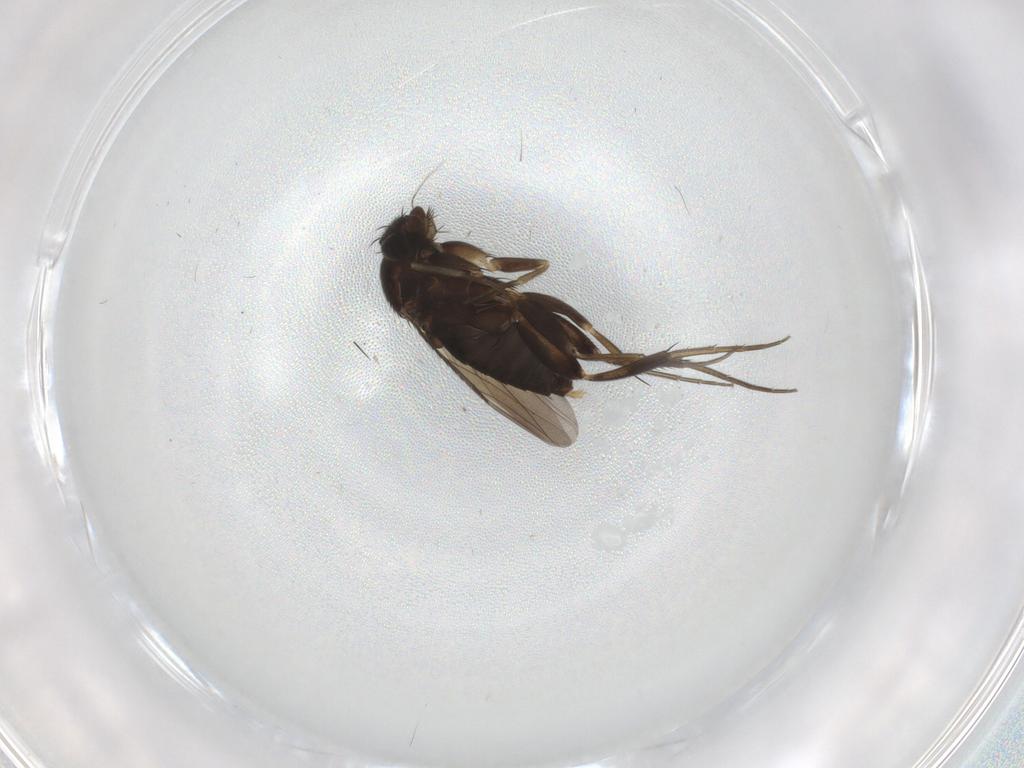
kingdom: Animalia
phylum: Arthropoda
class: Insecta
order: Diptera
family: Phoridae
